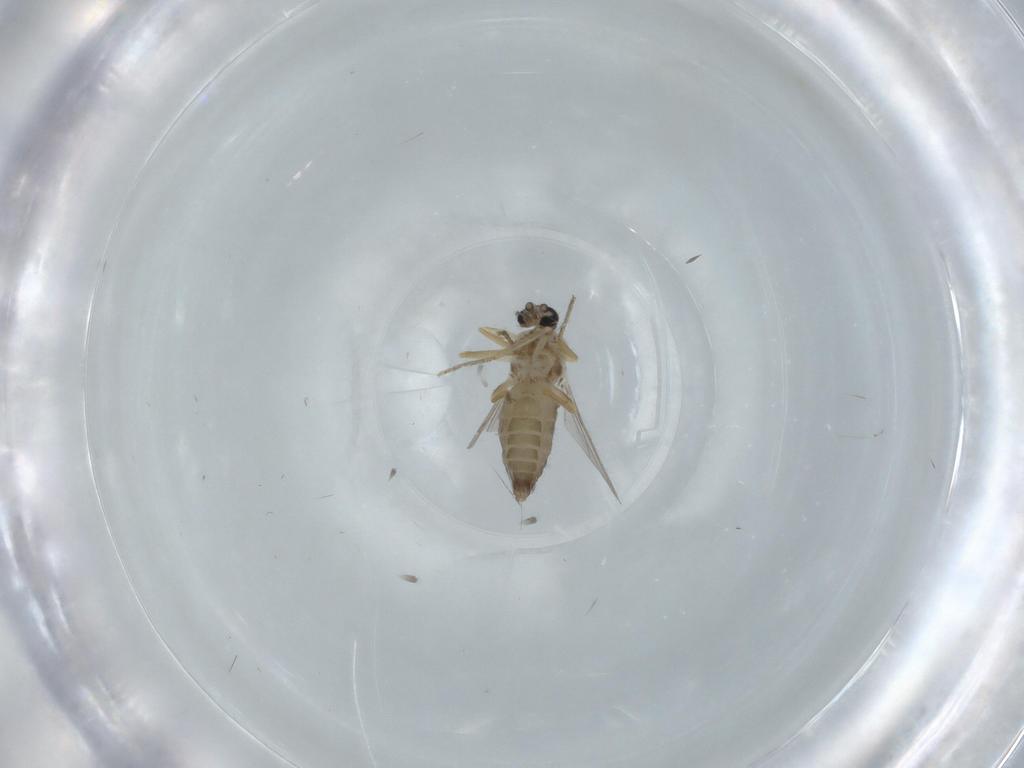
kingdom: Animalia
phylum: Arthropoda
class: Insecta
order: Diptera
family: Ceratopogonidae
